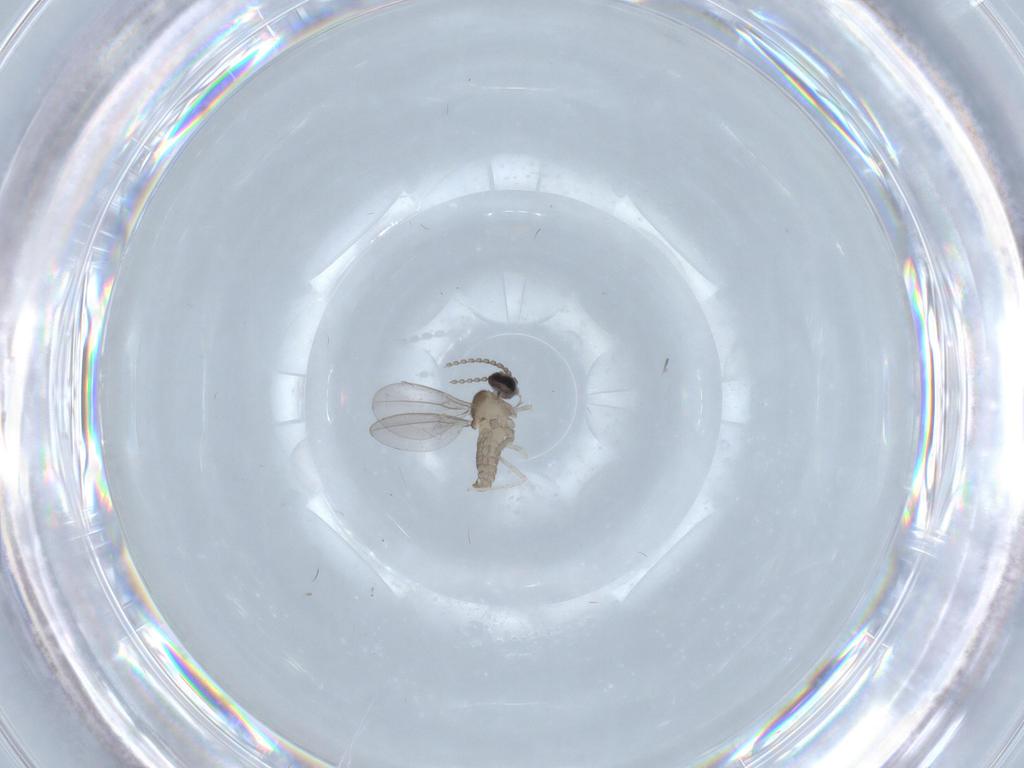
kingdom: Animalia
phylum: Arthropoda
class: Insecta
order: Diptera
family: Cecidomyiidae
